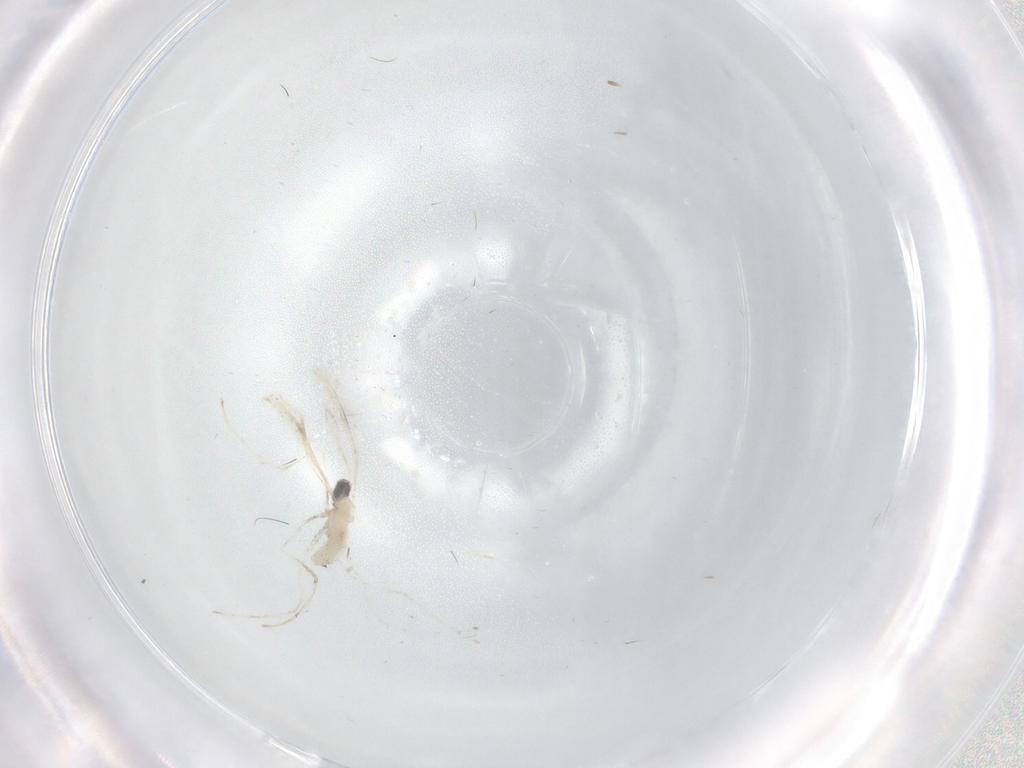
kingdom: Animalia
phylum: Arthropoda
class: Insecta
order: Diptera
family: Cecidomyiidae
